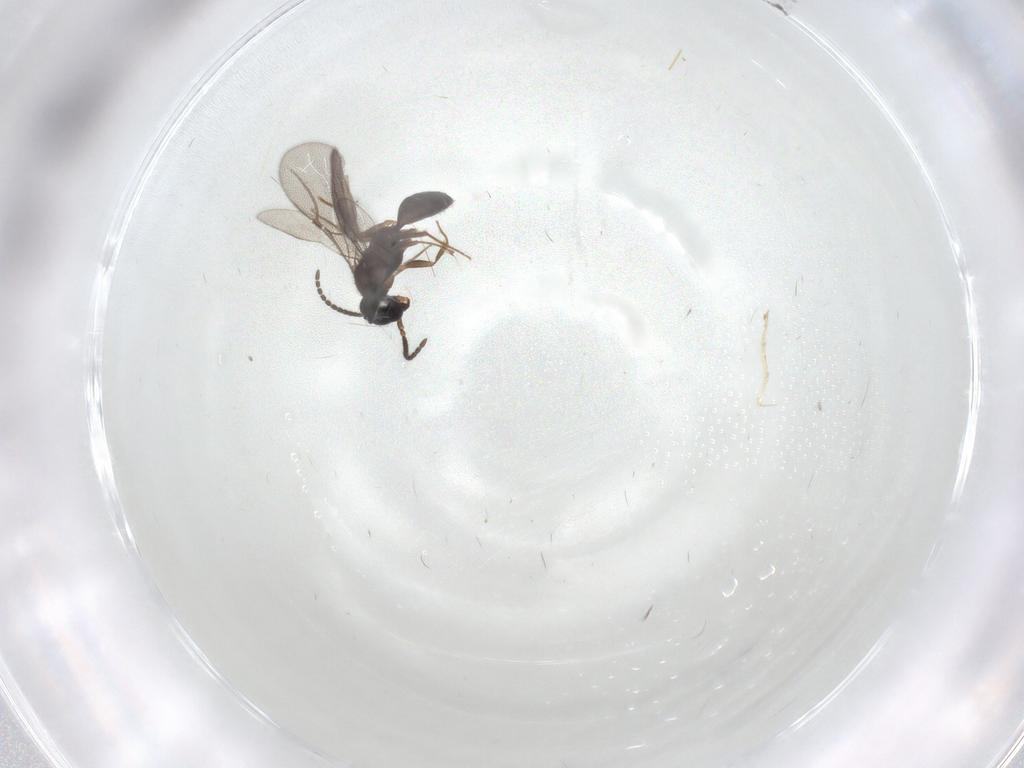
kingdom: Animalia
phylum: Arthropoda
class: Insecta
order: Hymenoptera
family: Bethylidae
